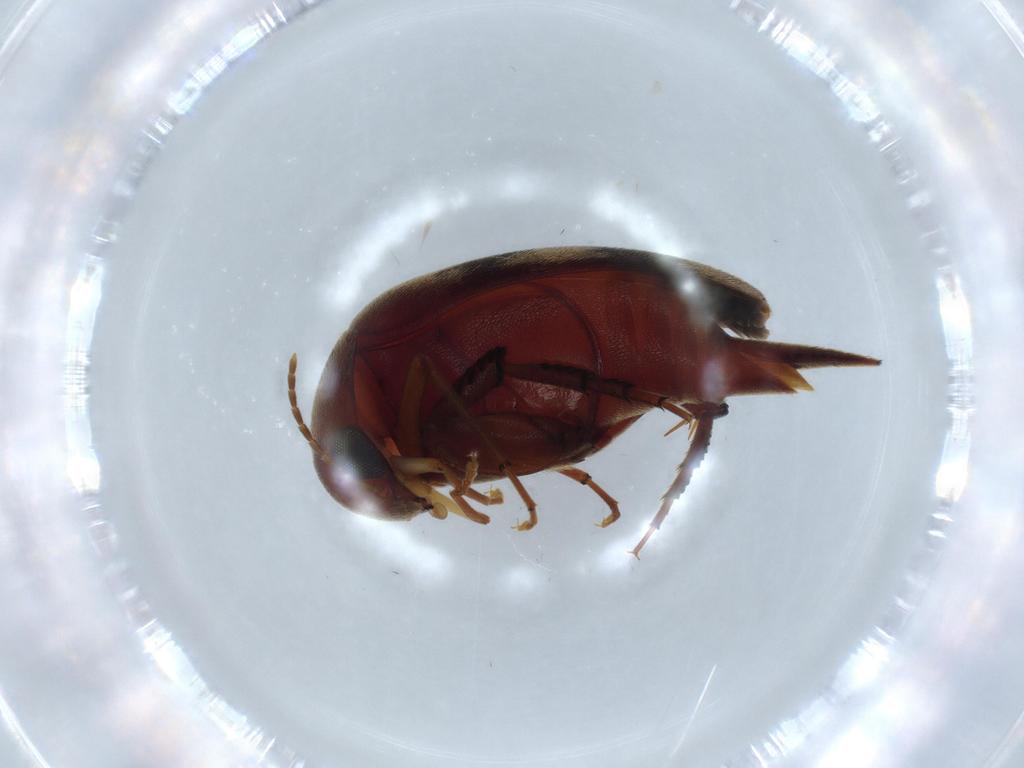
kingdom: Animalia
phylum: Arthropoda
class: Insecta
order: Coleoptera
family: Mordellidae
